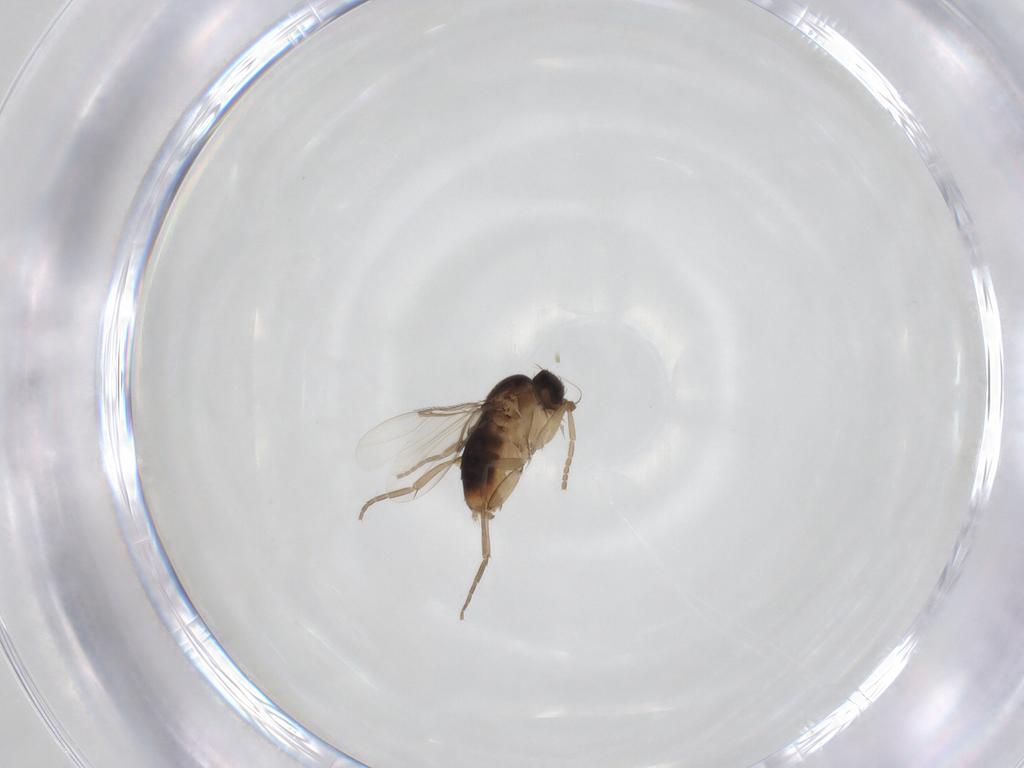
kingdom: Animalia
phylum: Arthropoda
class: Insecta
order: Diptera
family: Phoridae
